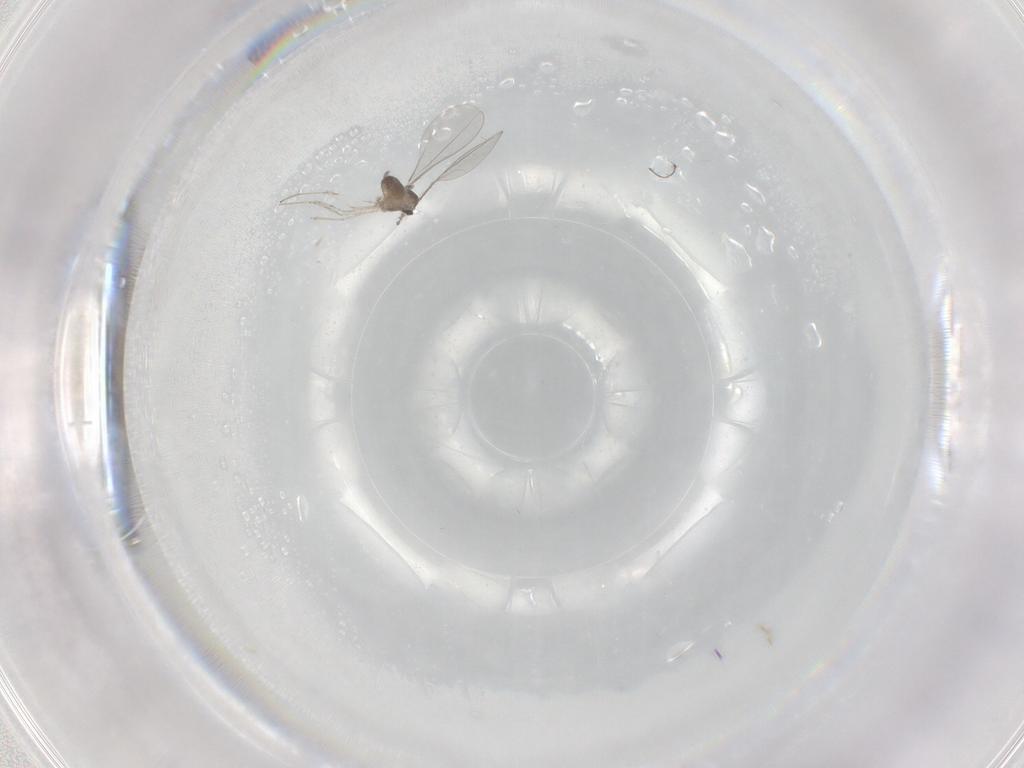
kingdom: Animalia
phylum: Arthropoda
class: Insecta
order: Diptera
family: Cecidomyiidae
